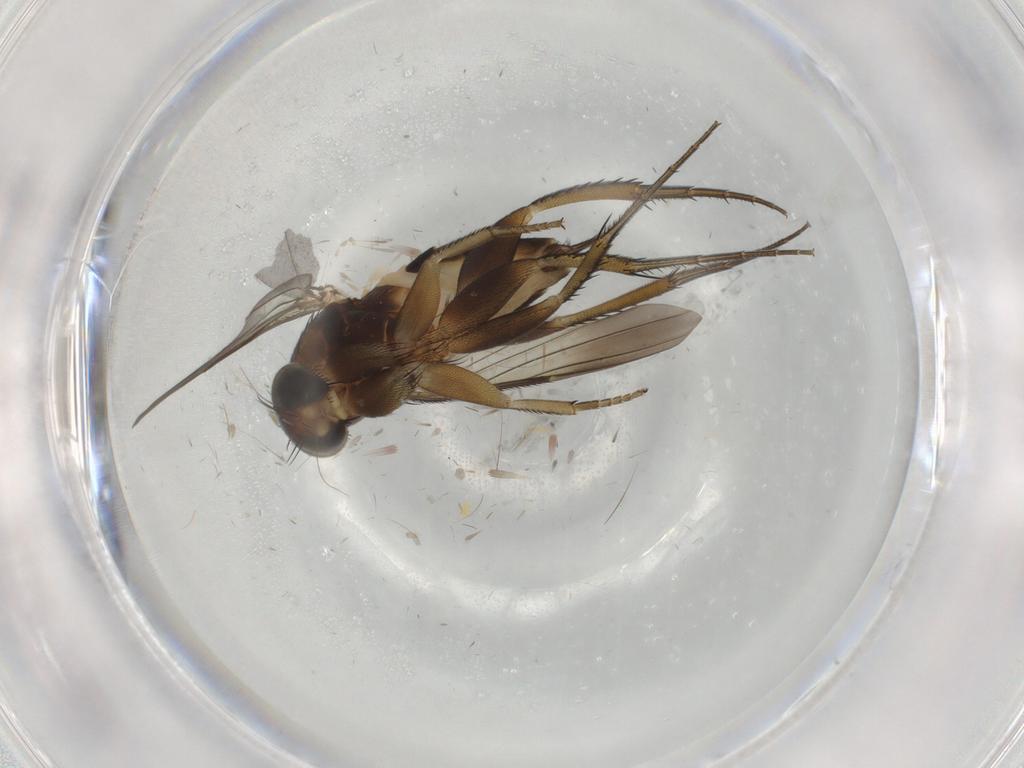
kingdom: Animalia
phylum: Arthropoda
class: Insecta
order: Diptera
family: Phoridae
